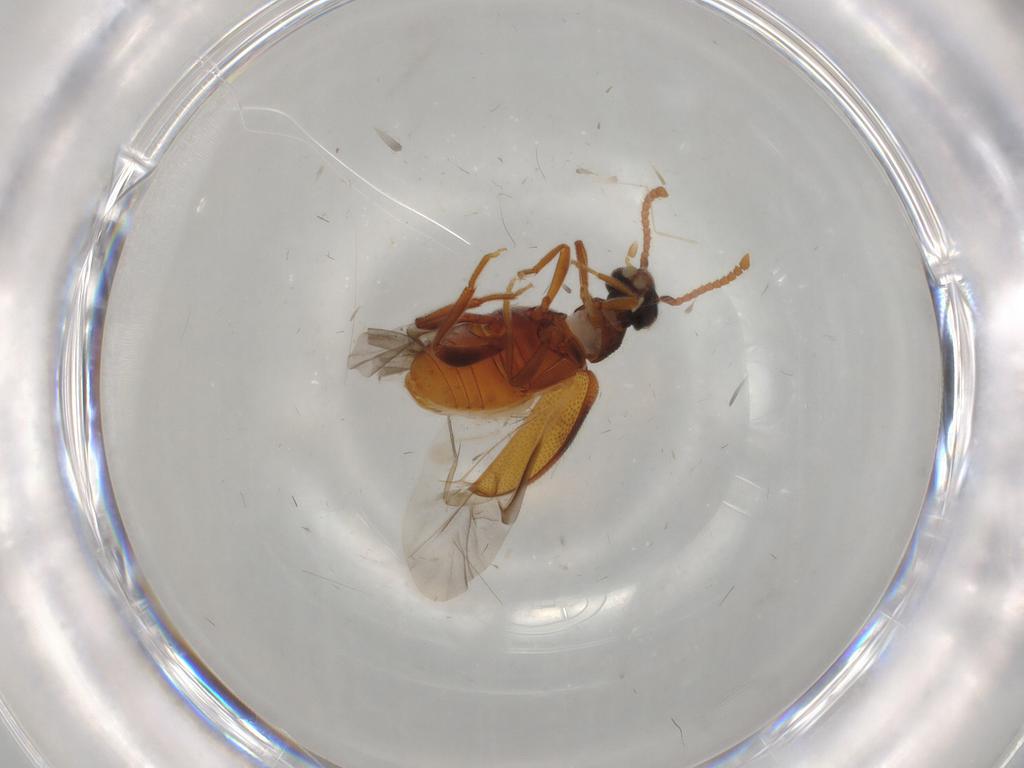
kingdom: Animalia
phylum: Arthropoda
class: Insecta
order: Coleoptera
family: Aderidae
